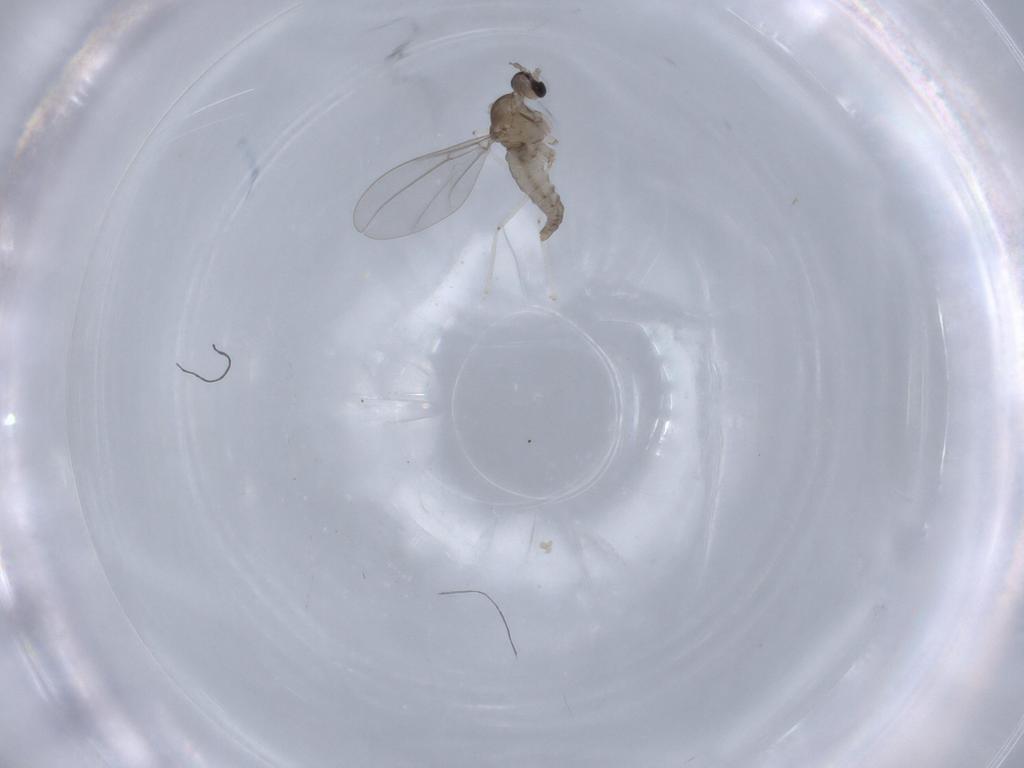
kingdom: Animalia
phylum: Arthropoda
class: Insecta
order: Diptera
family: Cecidomyiidae
